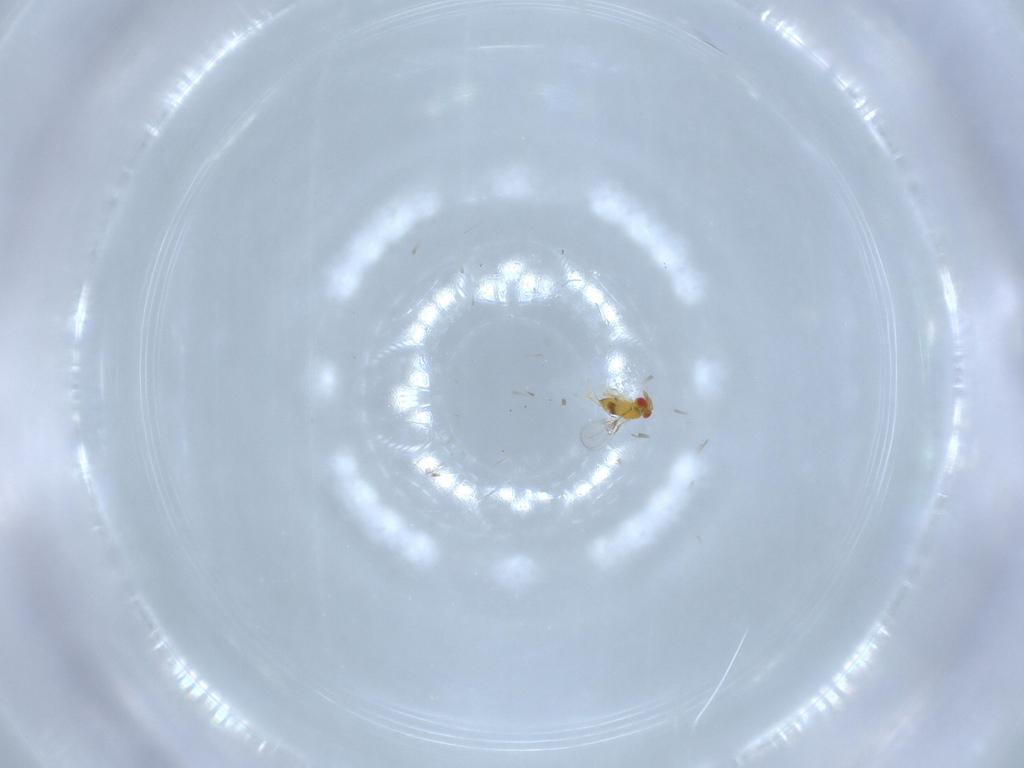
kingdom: Animalia
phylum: Arthropoda
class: Insecta
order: Hymenoptera
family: Trichogrammatidae
